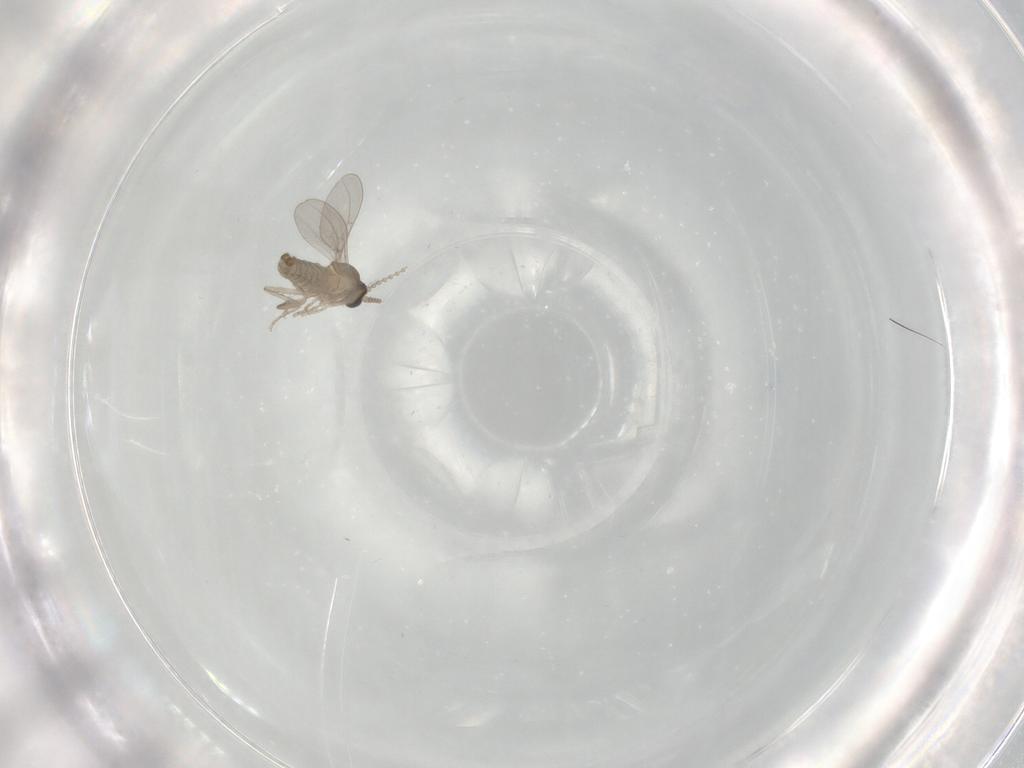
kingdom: Animalia
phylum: Arthropoda
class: Insecta
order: Diptera
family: Cecidomyiidae
